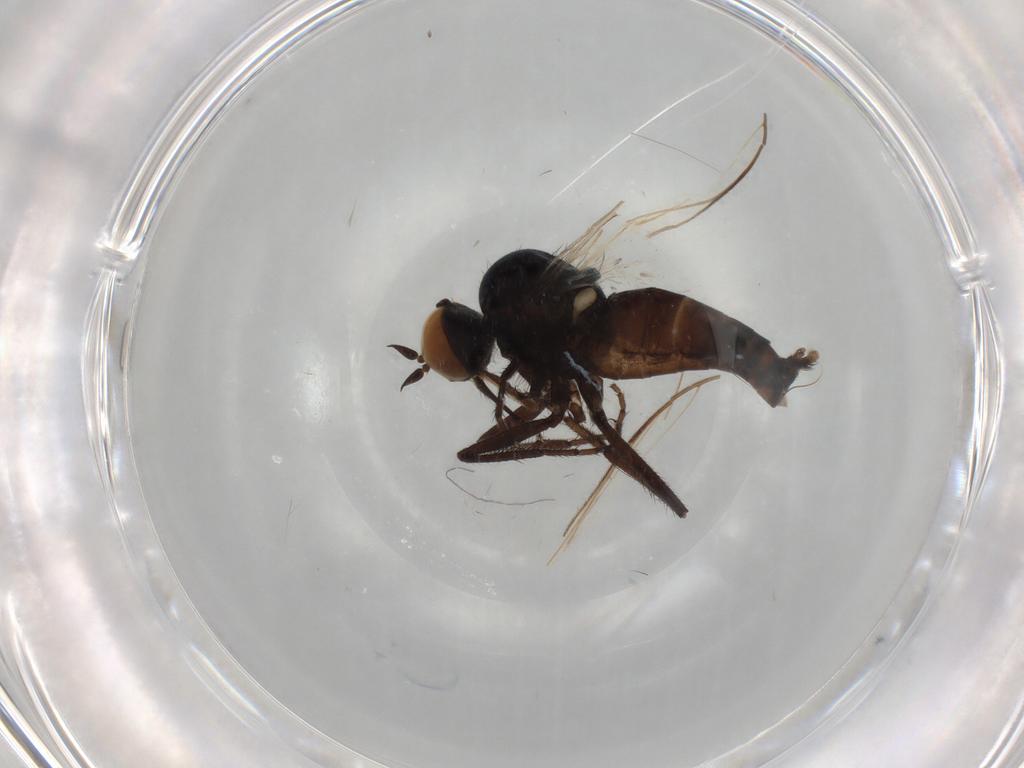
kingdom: Animalia
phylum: Arthropoda
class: Insecta
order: Diptera
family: Empididae
